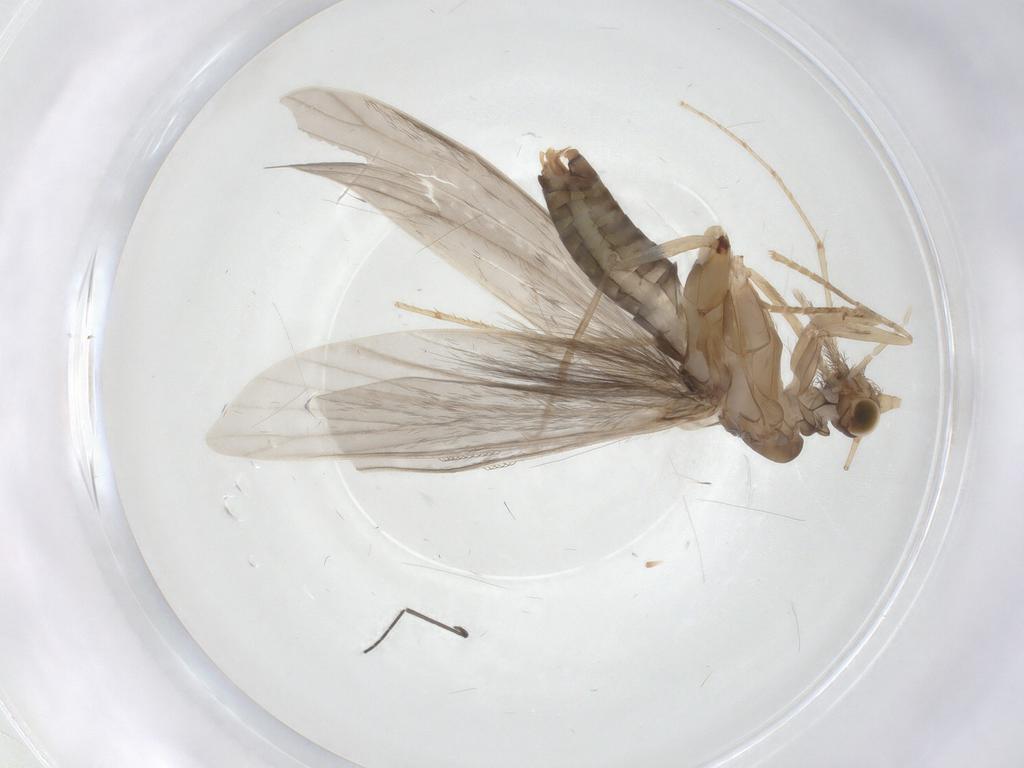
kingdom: Animalia
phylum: Arthropoda
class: Insecta
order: Trichoptera
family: Leptoceridae
